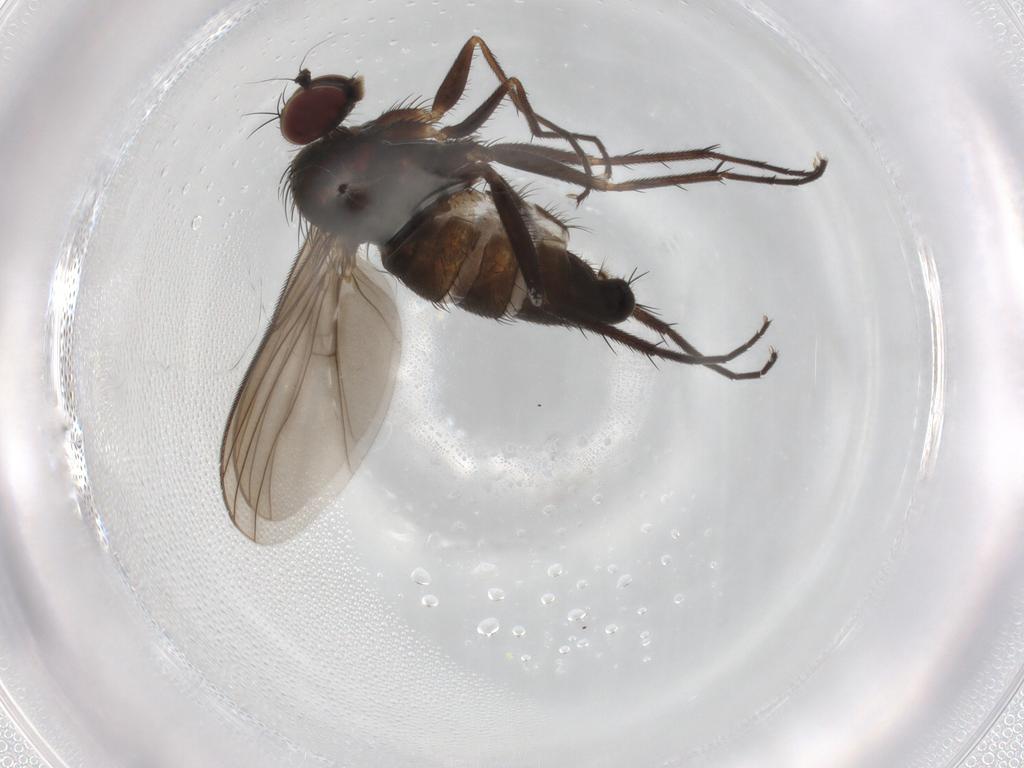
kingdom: Animalia
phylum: Arthropoda
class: Insecta
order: Diptera
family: Dolichopodidae
